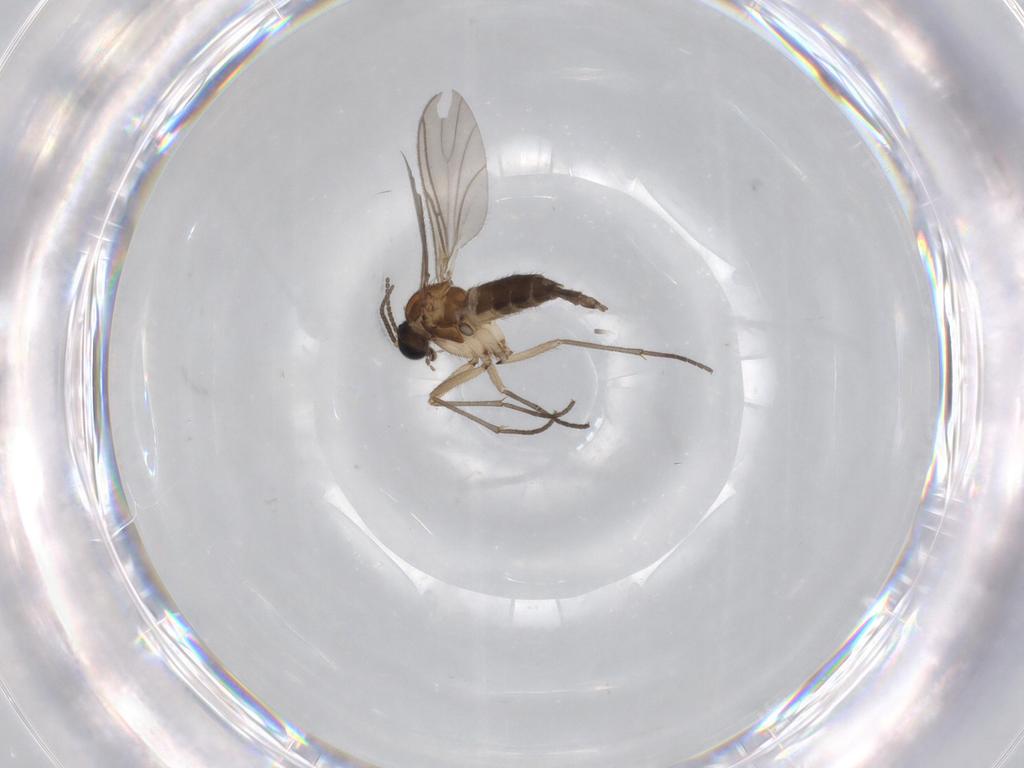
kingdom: Animalia
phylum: Arthropoda
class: Insecta
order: Diptera
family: Sciaridae
